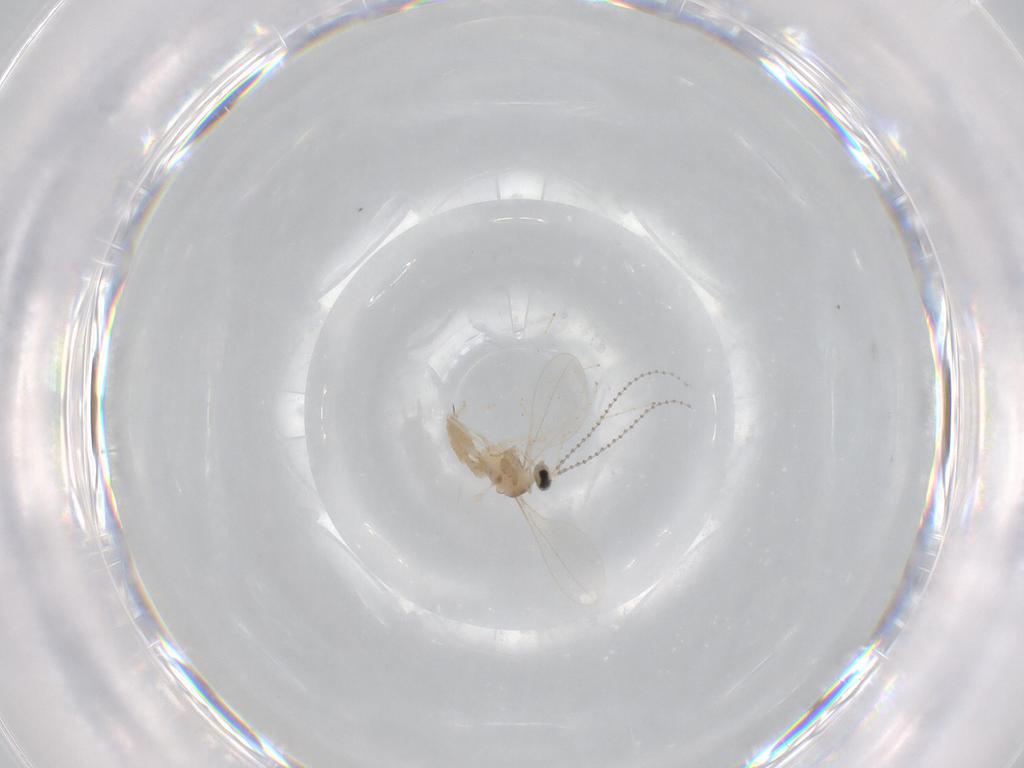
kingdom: Animalia
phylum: Arthropoda
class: Insecta
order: Diptera
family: Cecidomyiidae
